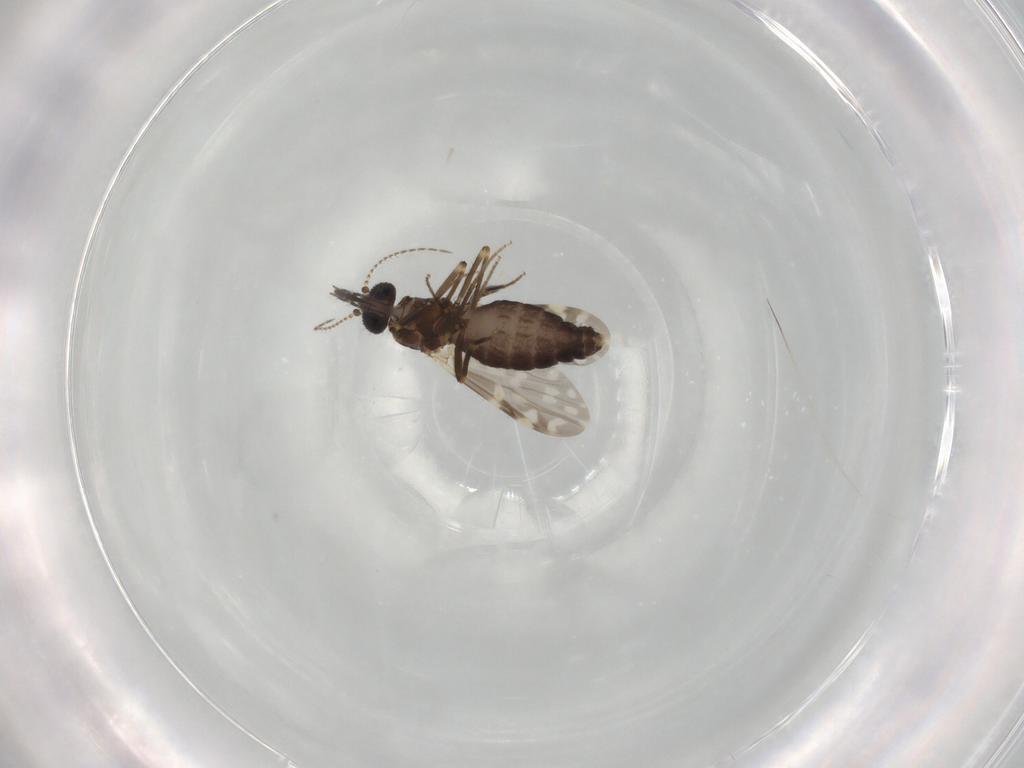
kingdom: Animalia
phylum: Arthropoda
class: Insecta
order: Diptera
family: Ceratopogonidae
